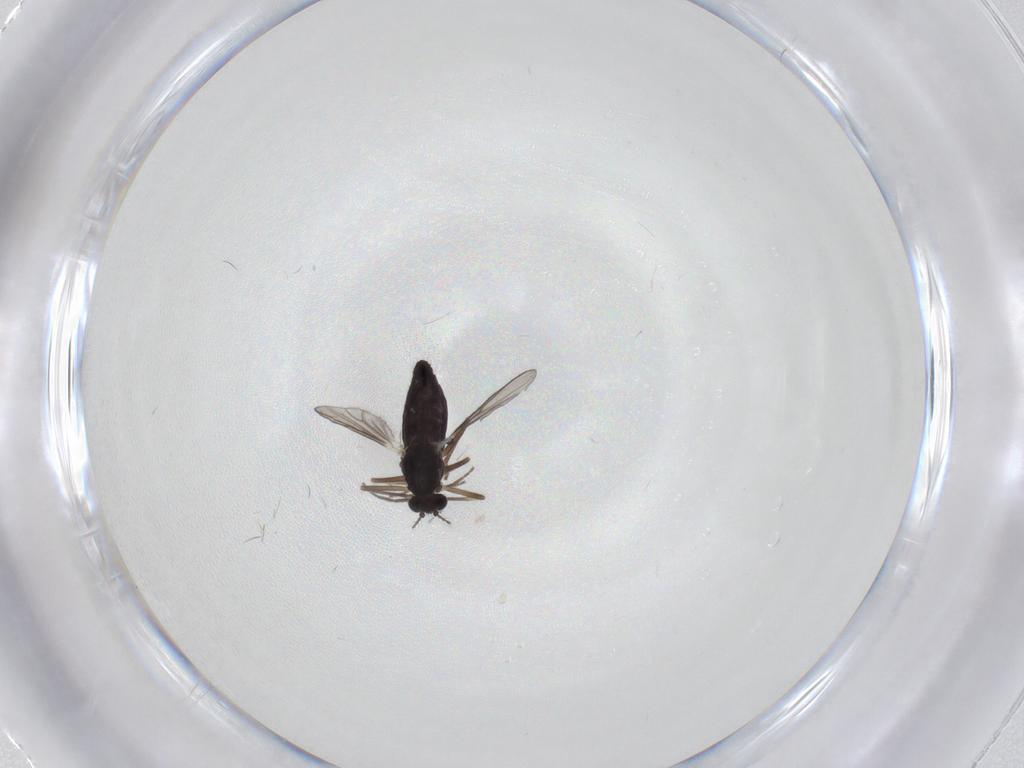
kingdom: Animalia
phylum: Arthropoda
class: Insecta
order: Diptera
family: Chironomidae
